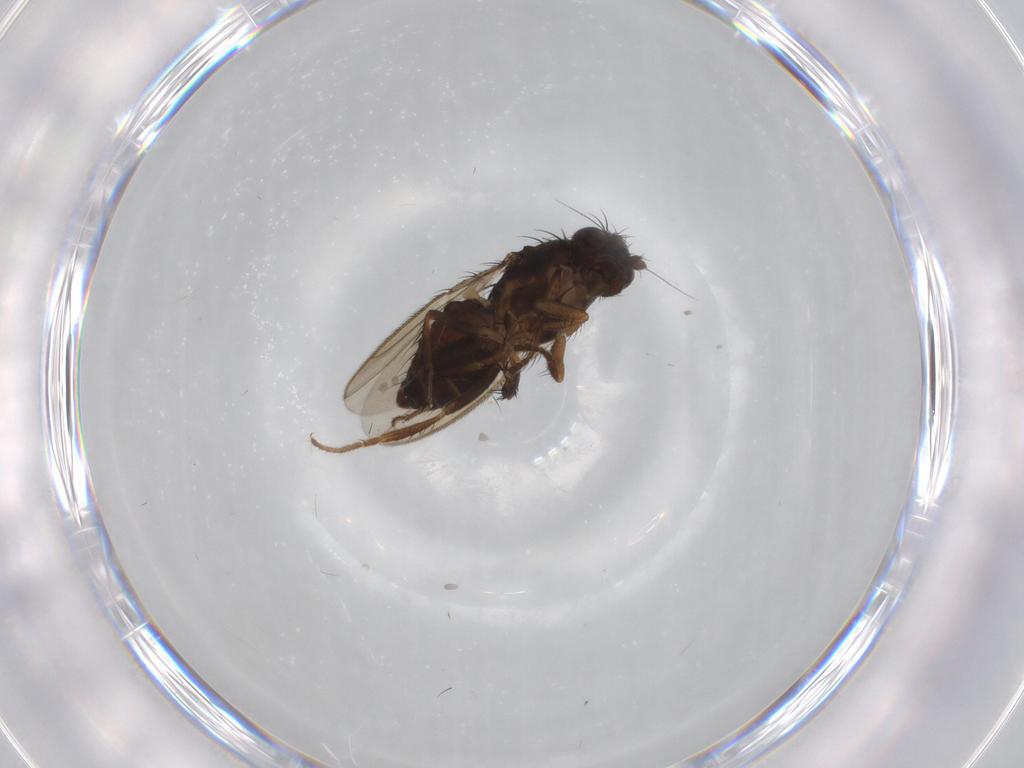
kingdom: Animalia
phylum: Arthropoda
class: Insecta
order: Diptera
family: Sphaeroceridae
